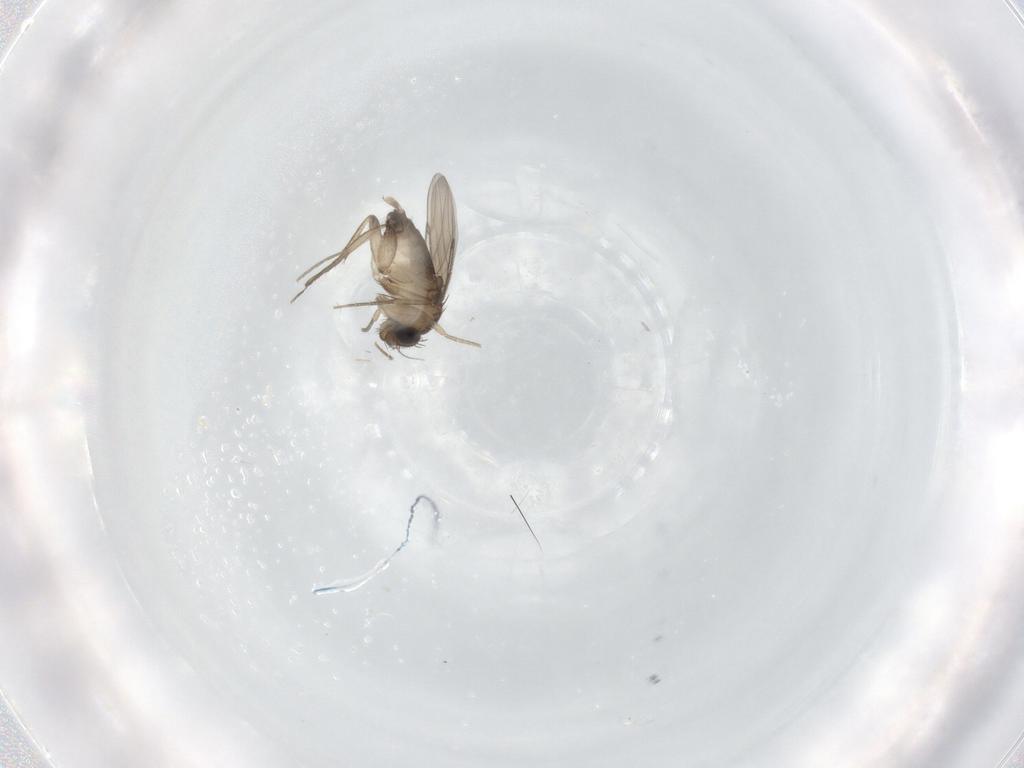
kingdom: Animalia
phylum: Arthropoda
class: Insecta
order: Diptera
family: Phoridae
